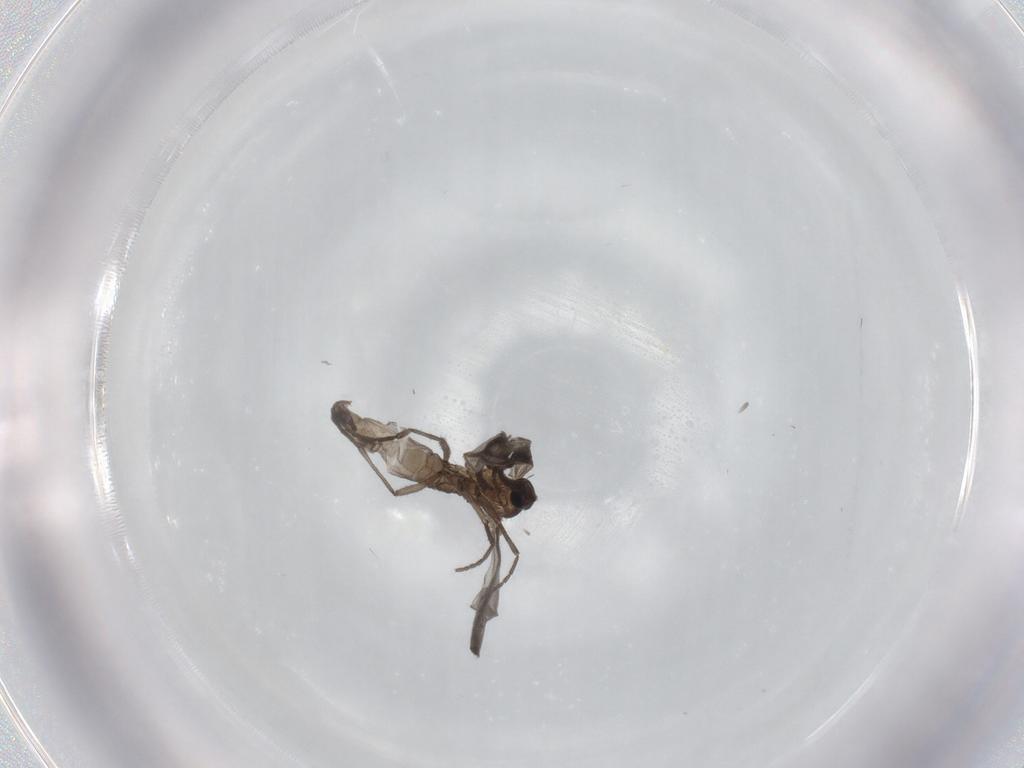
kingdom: Animalia
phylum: Arthropoda
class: Insecta
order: Diptera
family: Sciaridae
